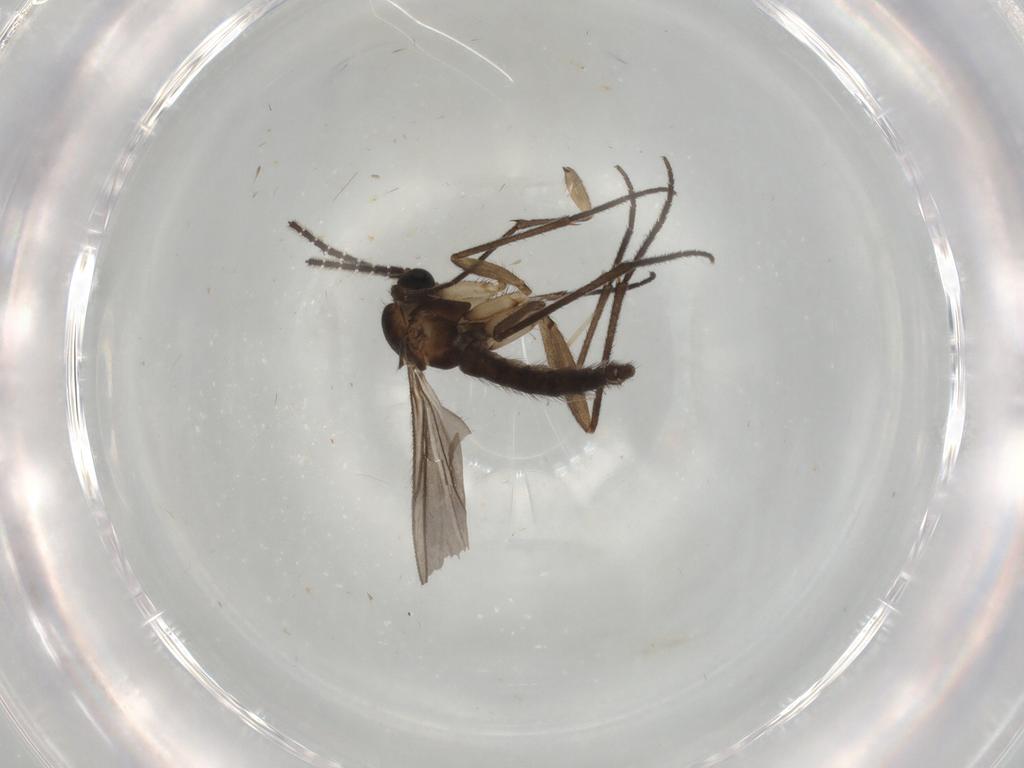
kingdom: Animalia
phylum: Arthropoda
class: Insecta
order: Diptera
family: Sciaridae
